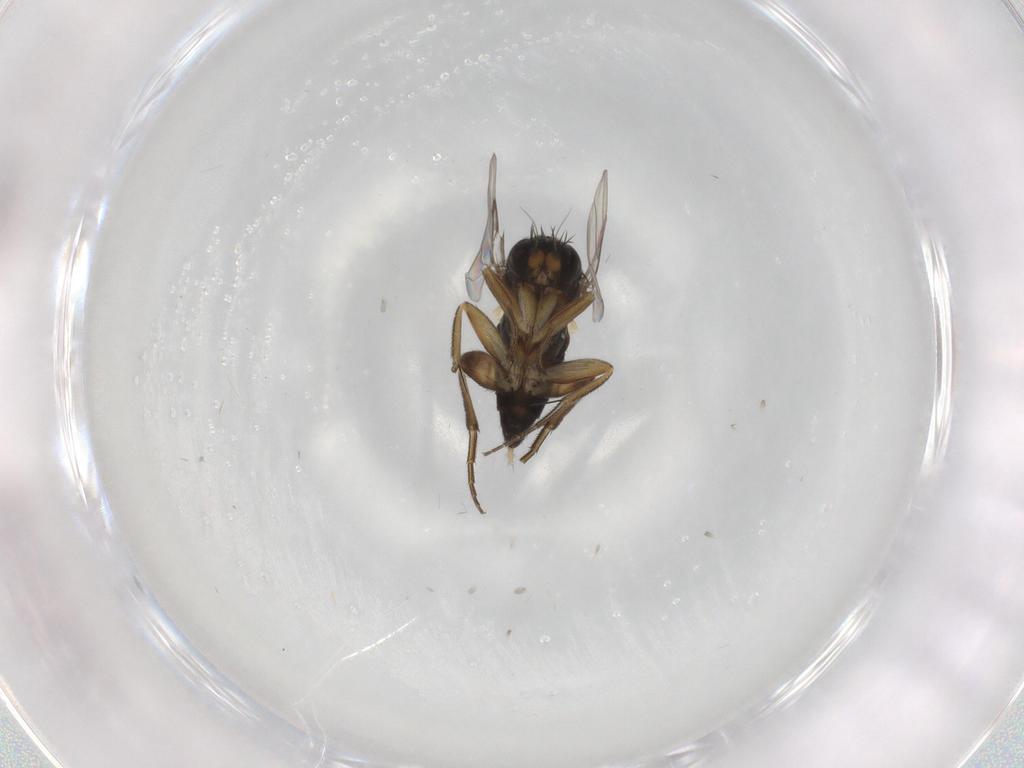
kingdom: Animalia
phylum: Arthropoda
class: Insecta
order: Diptera
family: Phoridae
